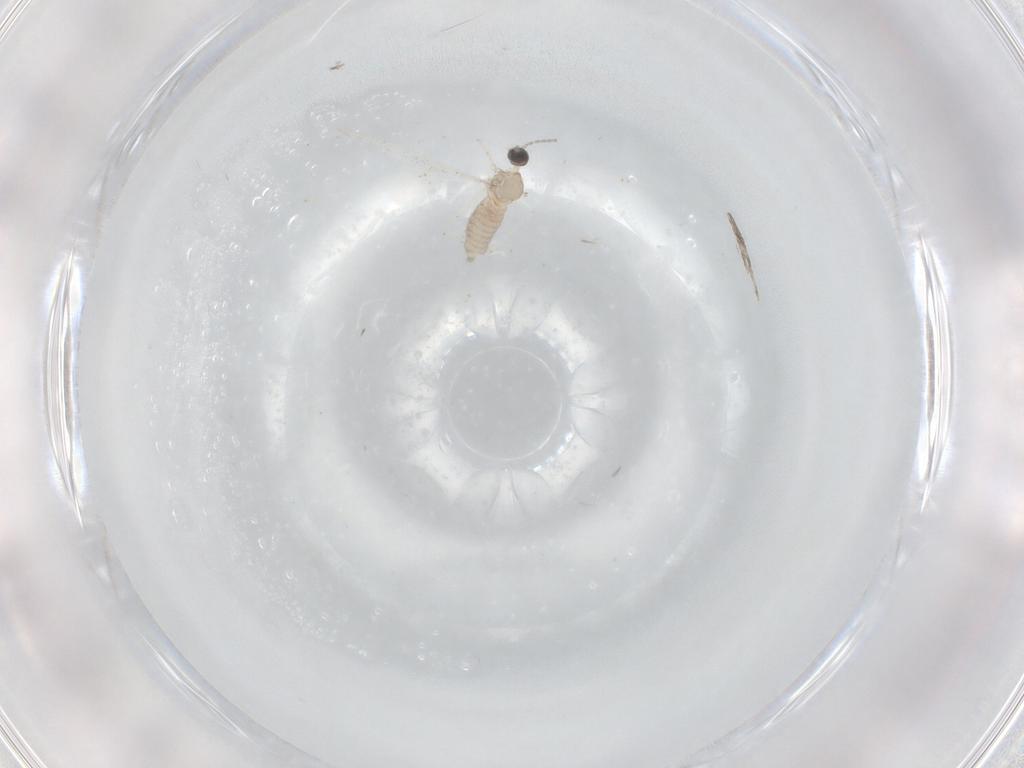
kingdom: Animalia
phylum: Arthropoda
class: Insecta
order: Diptera
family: Cecidomyiidae
